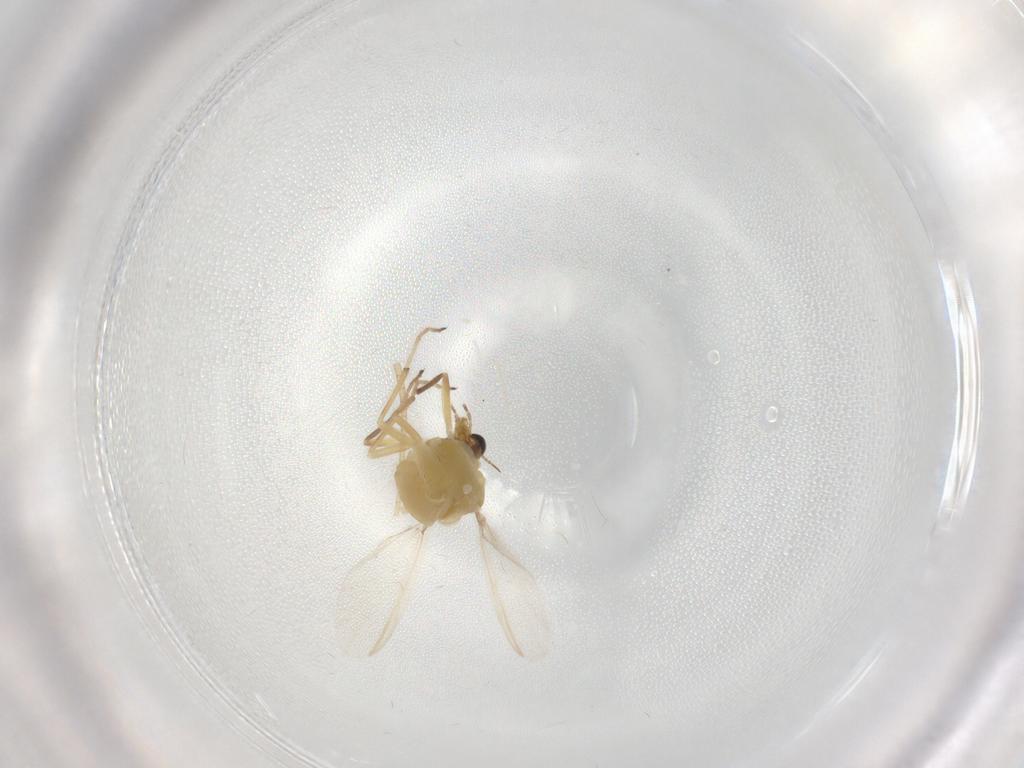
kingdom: Animalia
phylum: Arthropoda
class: Insecta
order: Diptera
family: Chironomidae
